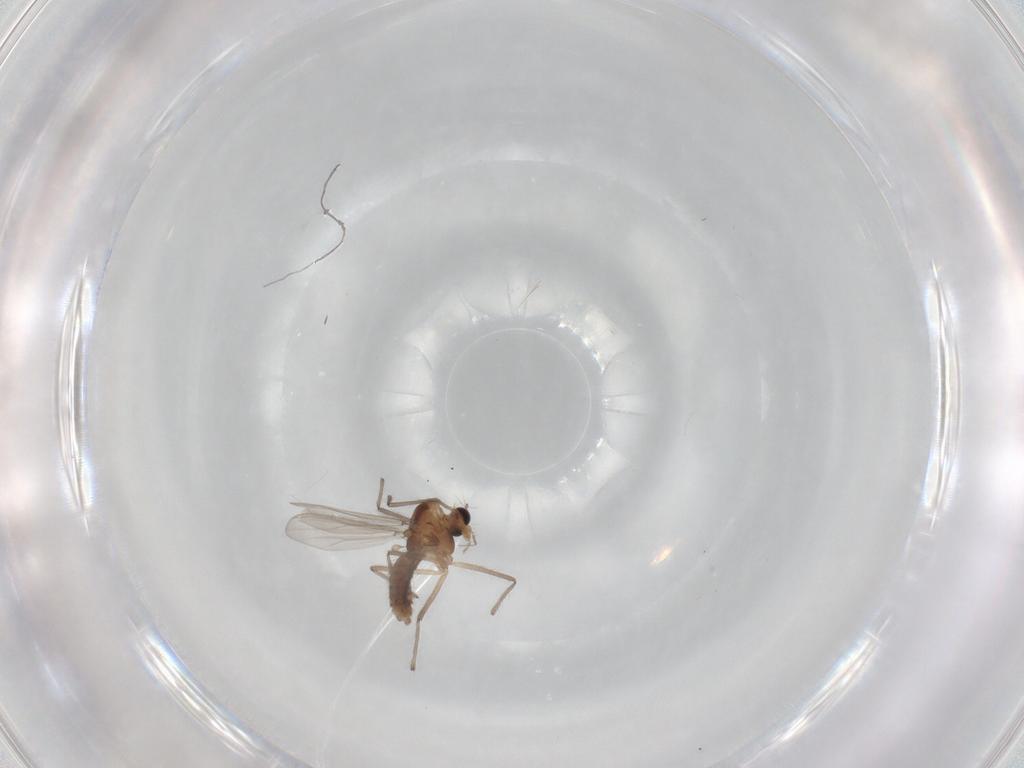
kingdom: Animalia
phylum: Arthropoda
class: Insecta
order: Diptera
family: Chironomidae
